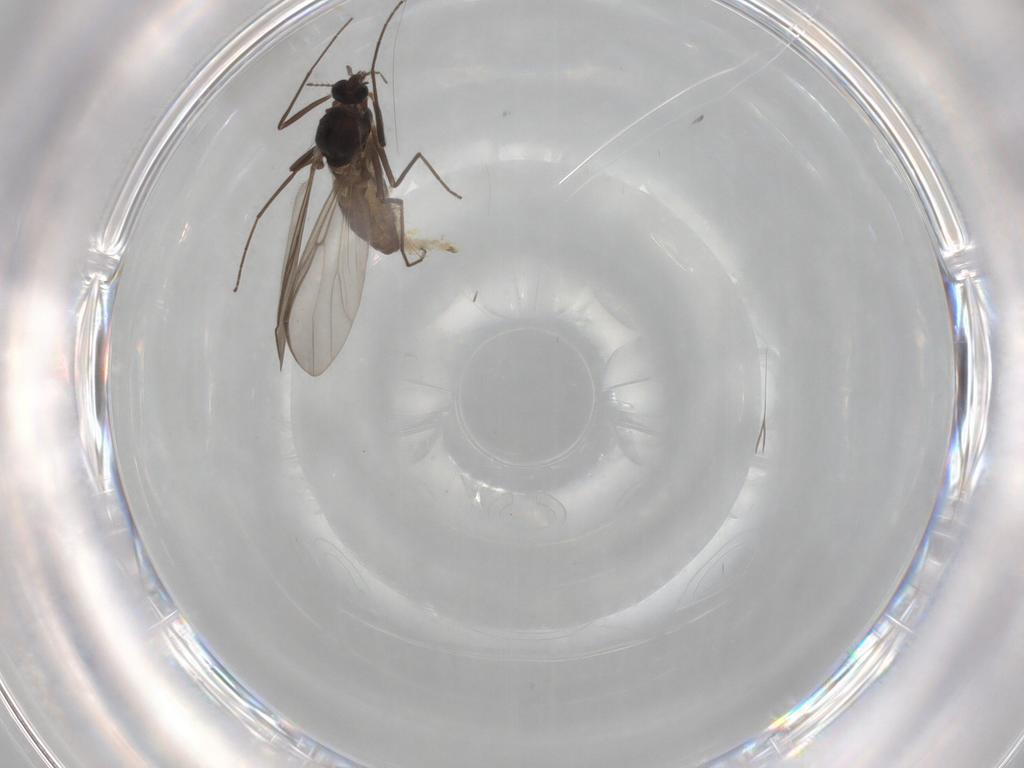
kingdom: Animalia
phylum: Arthropoda
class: Insecta
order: Diptera
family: Chironomidae
